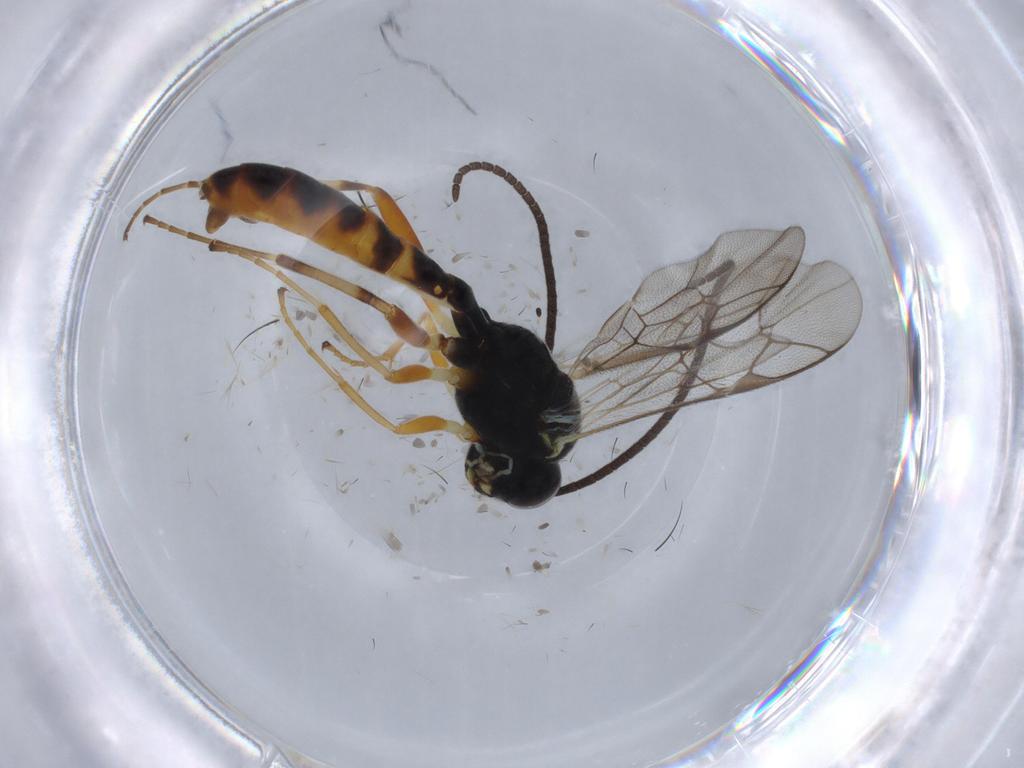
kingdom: Animalia
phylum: Arthropoda
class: Insecta
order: Hymenoptera
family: Ichneumonidae
